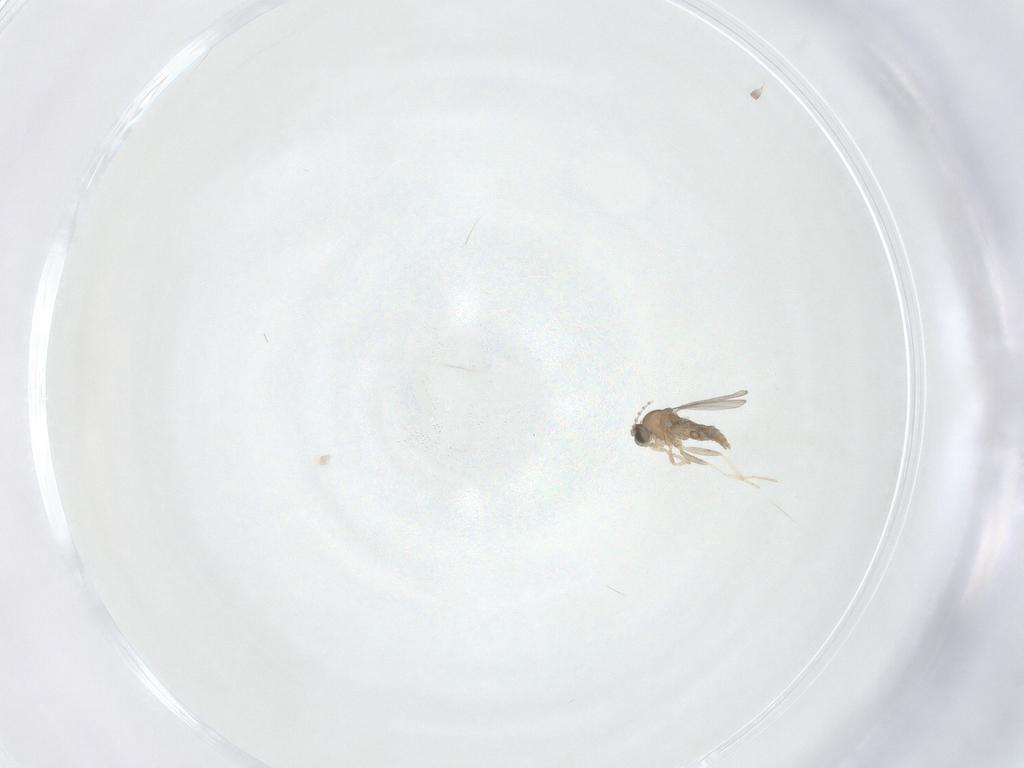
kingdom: Animalia
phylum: Arthropoda
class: Insecta
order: Diptera
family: Cecidomyiidae
